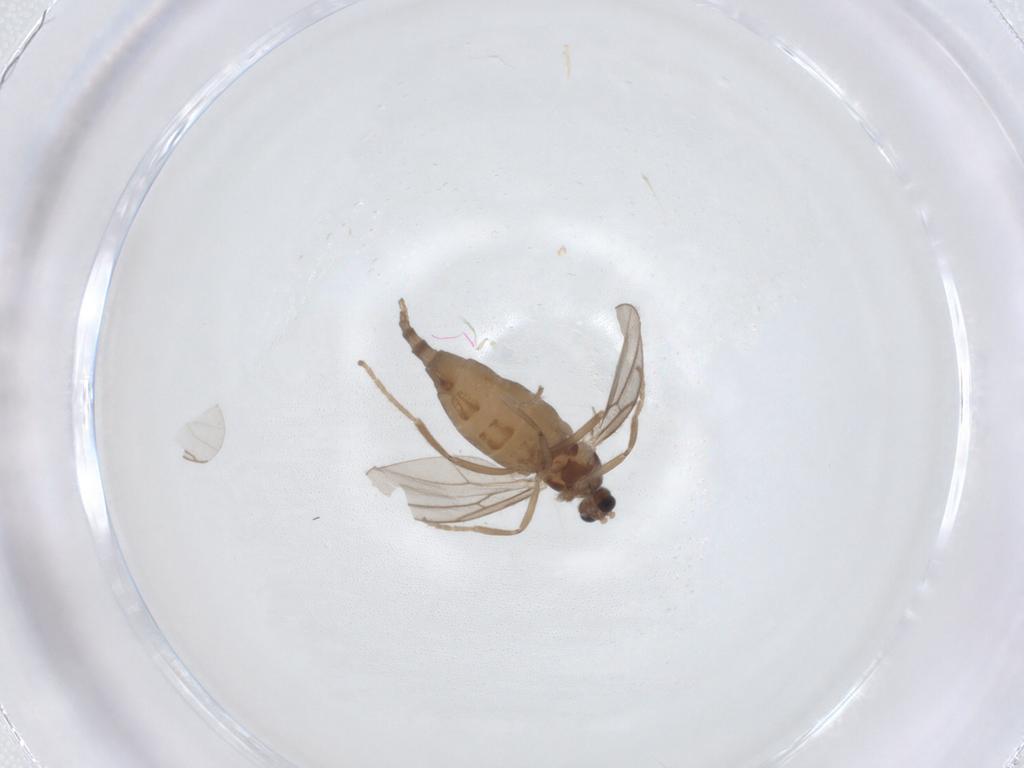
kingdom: Animalia
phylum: Arthropoda
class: Insecta
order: Diptera
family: Cecidomyiidae
